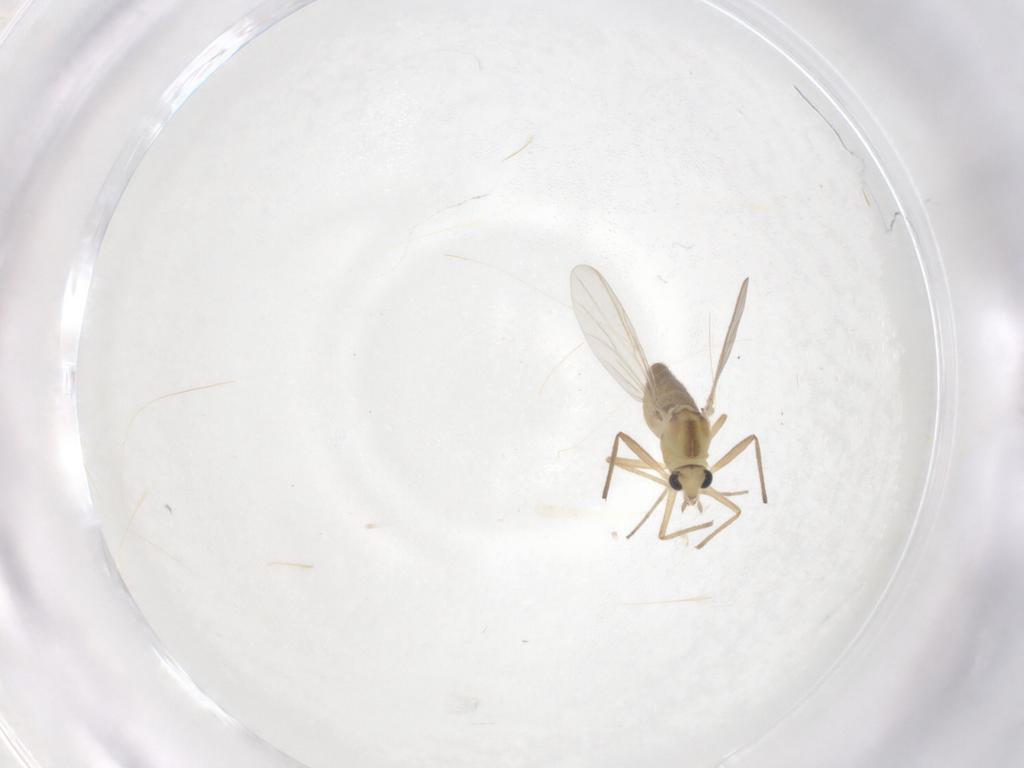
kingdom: Animalia
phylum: Arthropoda
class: Insecta
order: Diptera
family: Chironomidae
